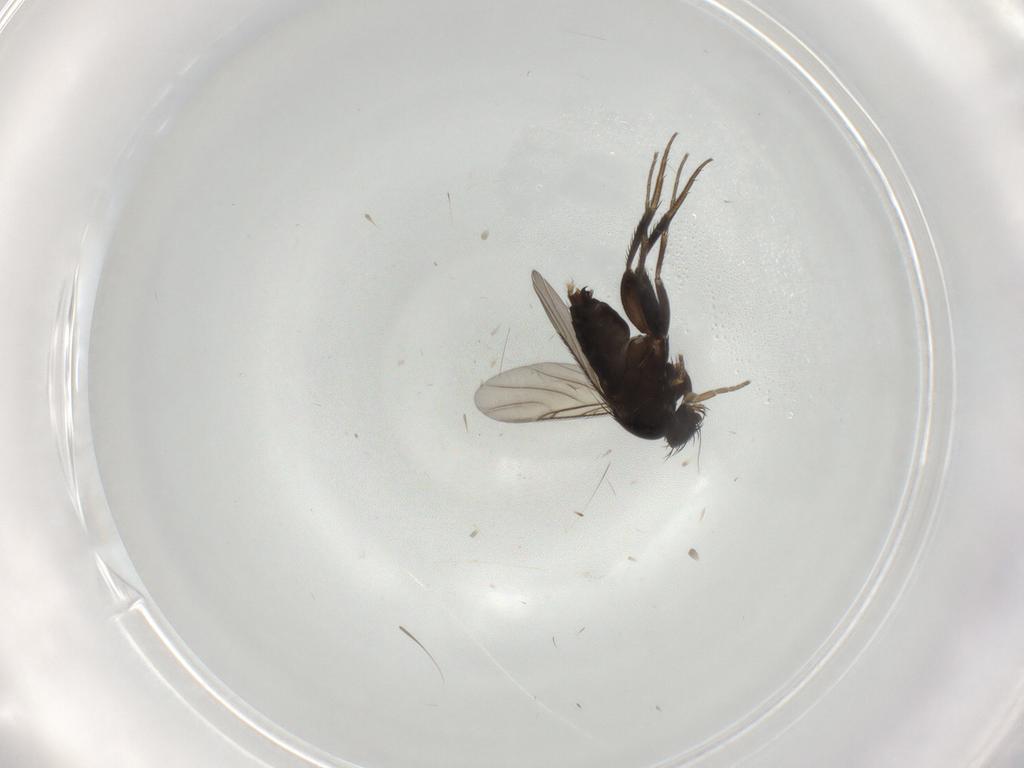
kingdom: Animalia
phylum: Arthropoda
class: Insecta
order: Diptera
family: Phoridae
